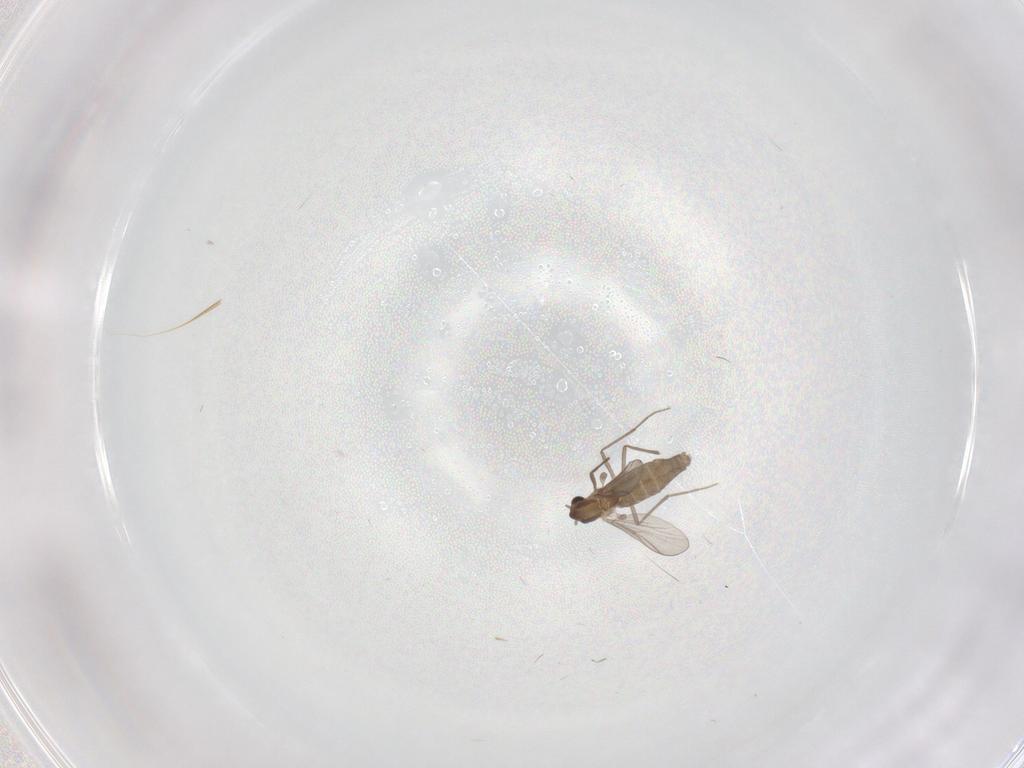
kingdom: Animalia
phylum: Arthropoda
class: Insecta
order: Diptera
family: Chironomidae
